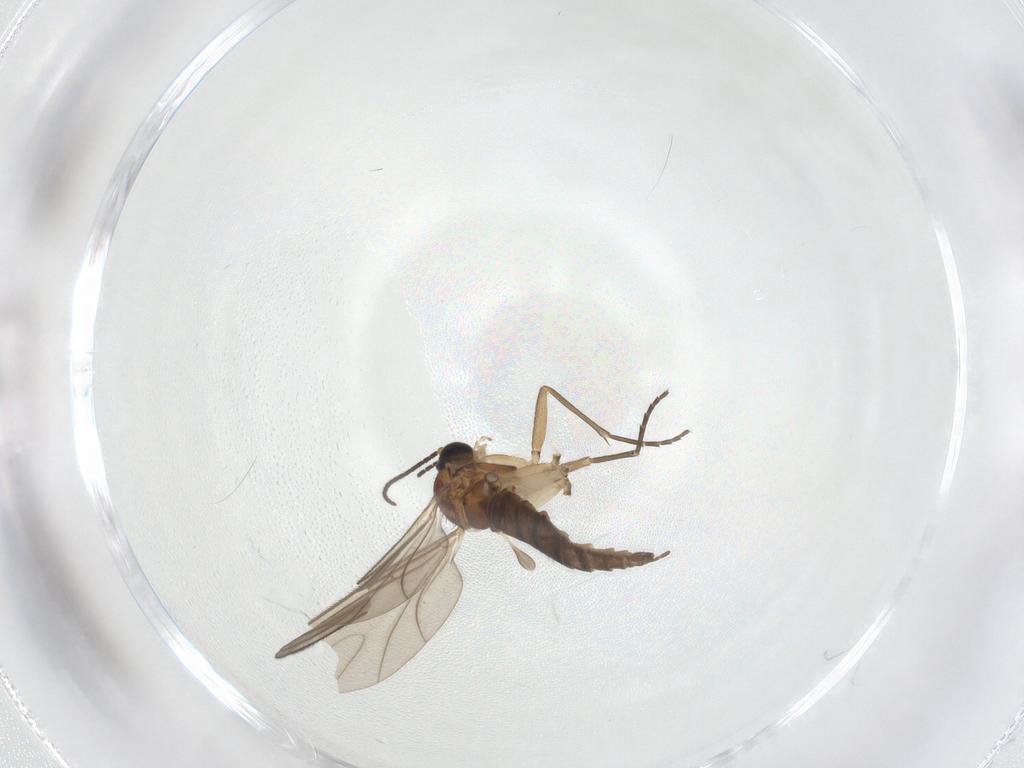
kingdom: Animalia
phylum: Arthropoda
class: Insecta
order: Diptera
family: Sciaridae
